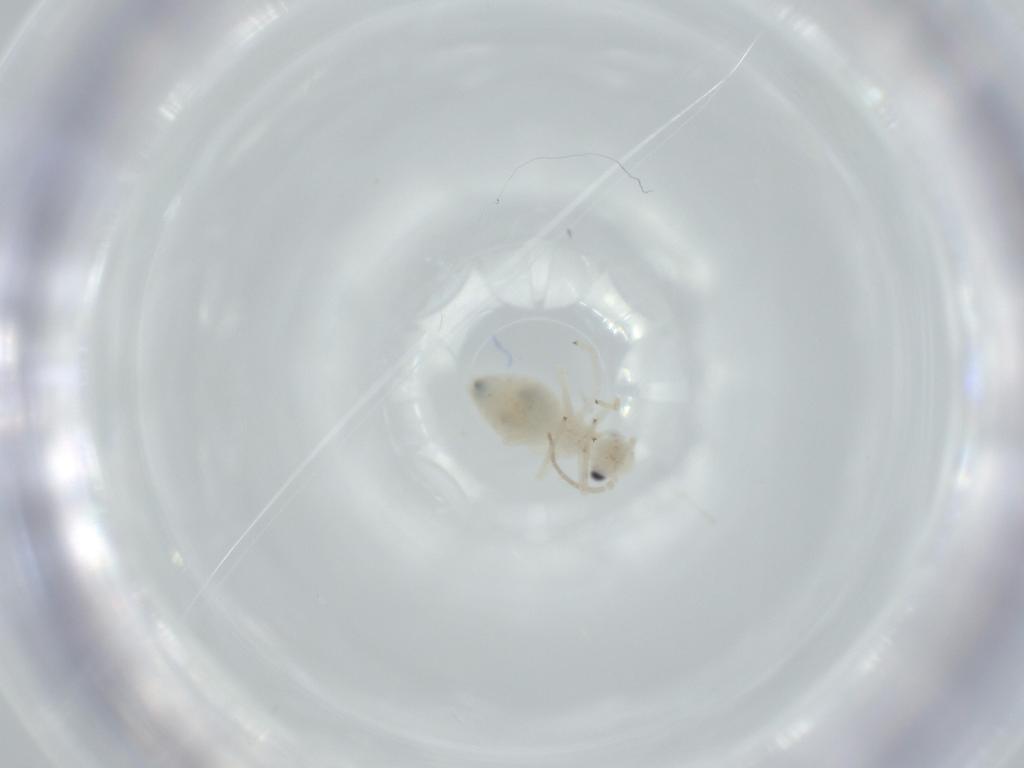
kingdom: Animalia
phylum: Arthropoda
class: Insecta
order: Psocodea
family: Caeciliusidae
